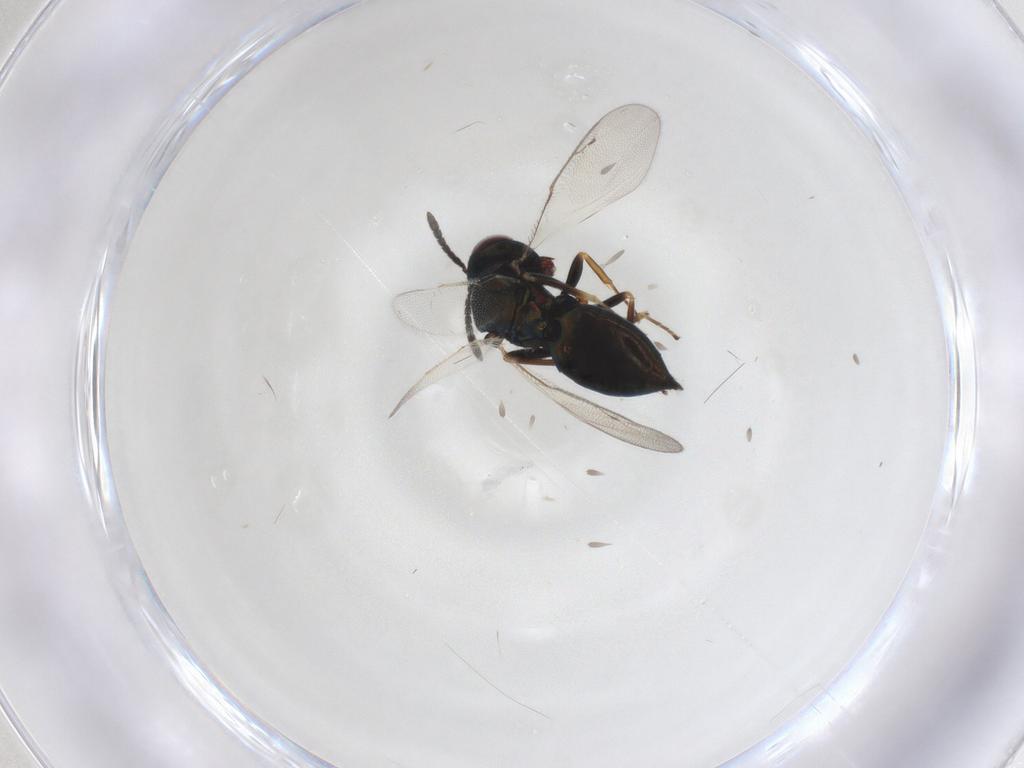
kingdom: Animalia
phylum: Arthropoda
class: Insecta
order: Hymenoptera
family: Pteromalidae
